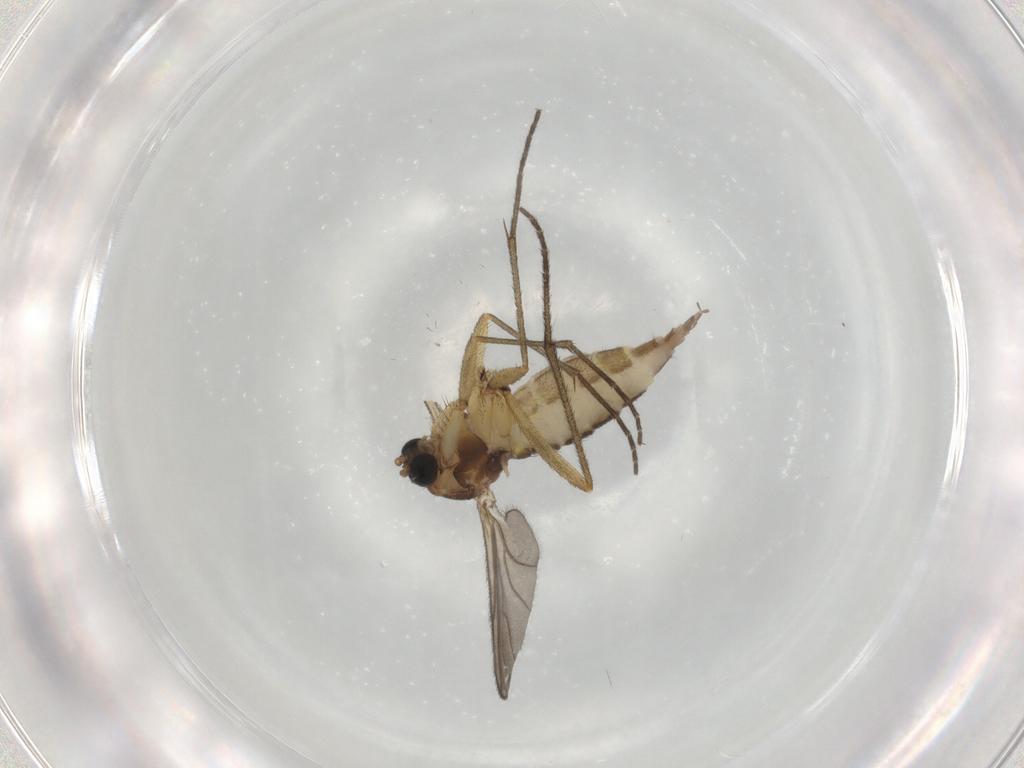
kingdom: Animalia
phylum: Arthropoda
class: Insecta
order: Diptera
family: Sciaridae
